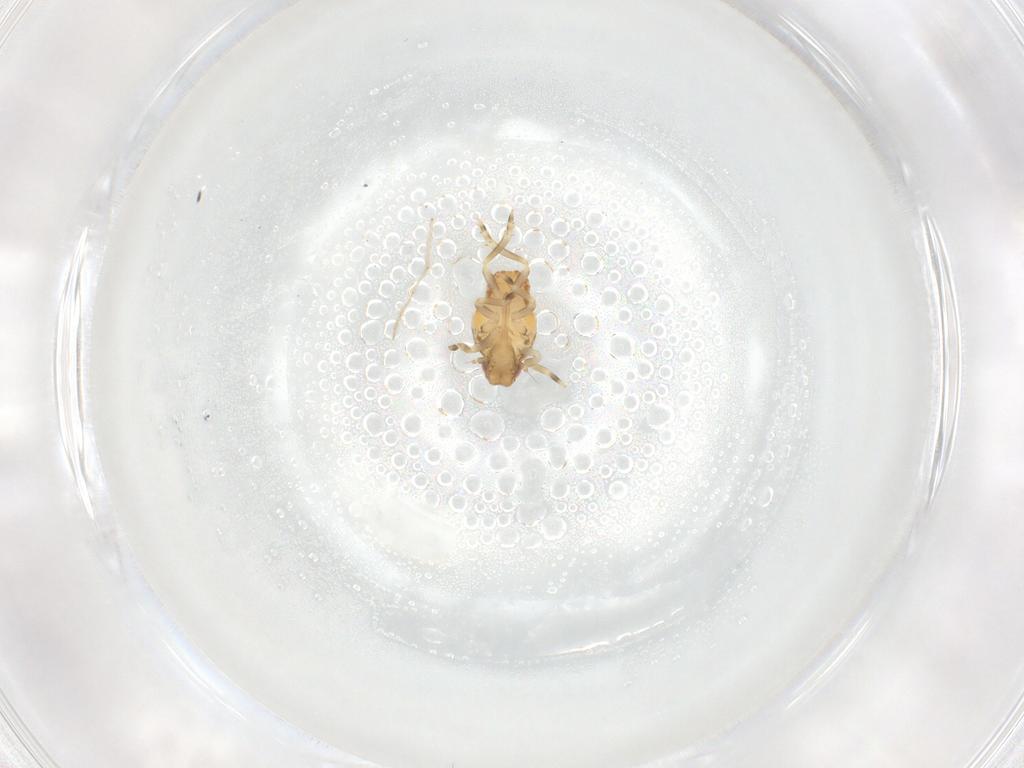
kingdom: Animalia
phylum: Arthropoda
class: Insecta
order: Hemiptera
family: Flatidae
